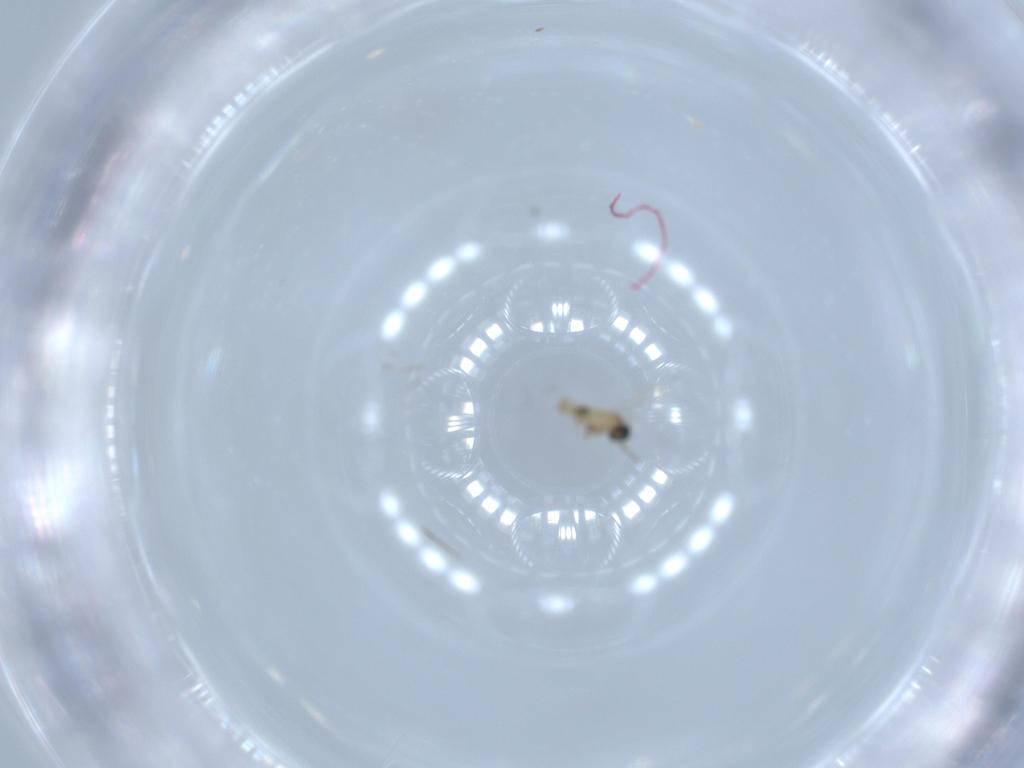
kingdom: Animalia
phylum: Arthropoda
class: Insecta
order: Diptera
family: Cecidomyiidae
